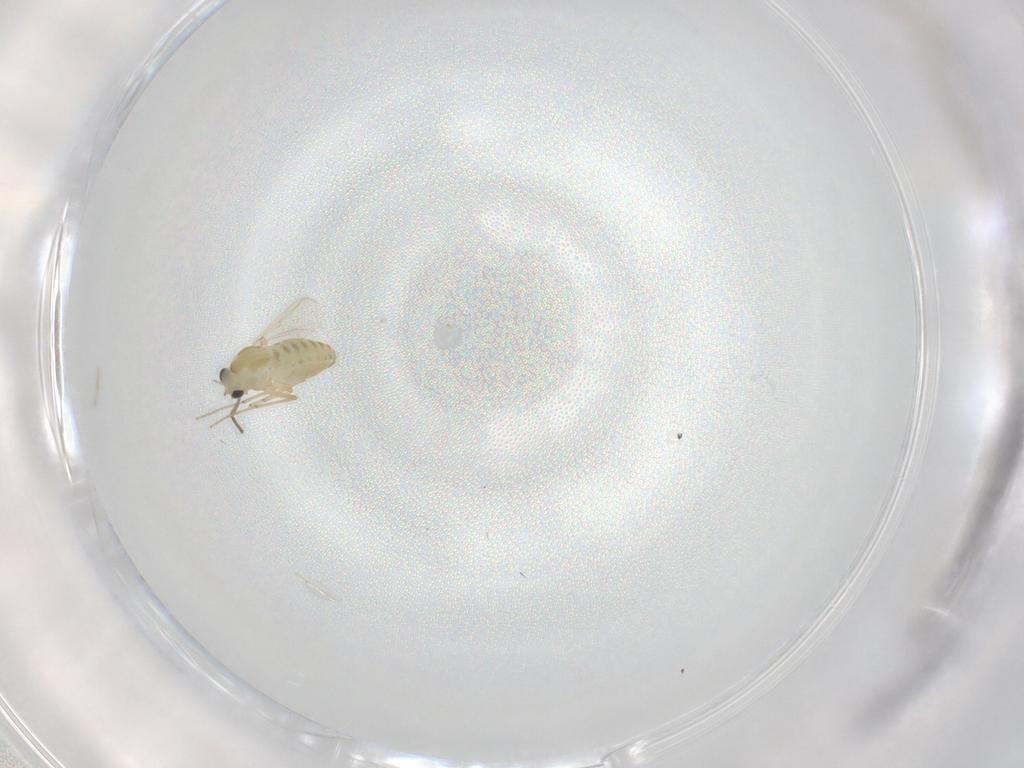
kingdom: Animalia
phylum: Arthropoda
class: Insecta
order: Diptera
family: Chironomidae
